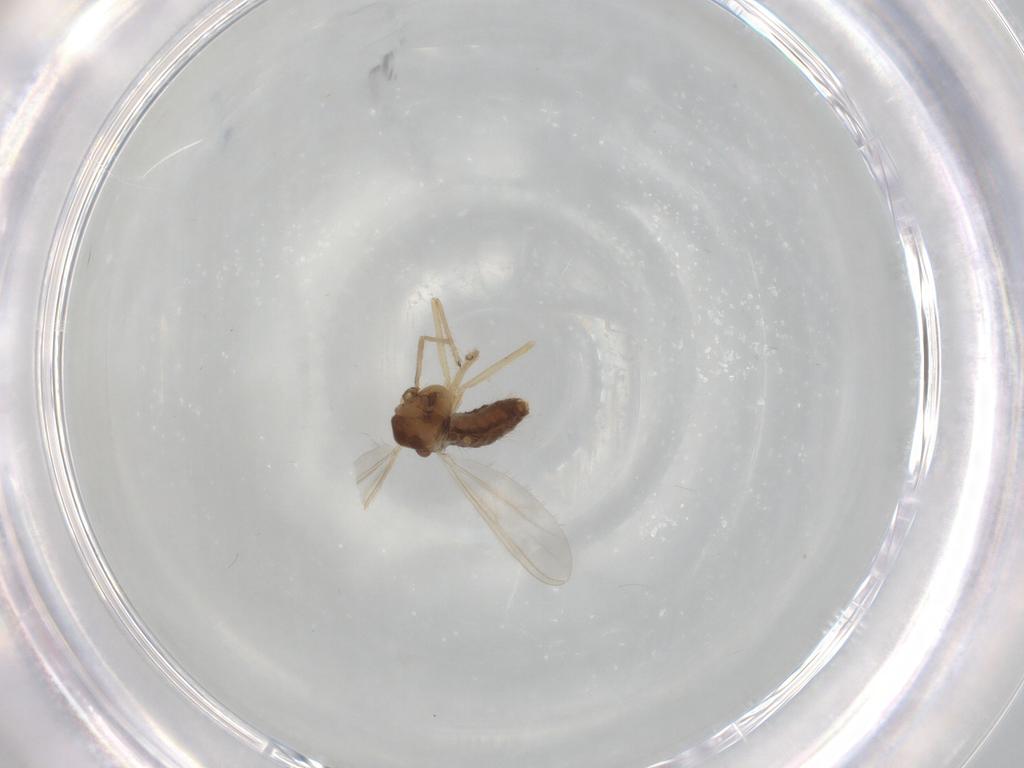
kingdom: Animalia
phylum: Arthropoda
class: Insecta
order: Diptera
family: Chironomidae
